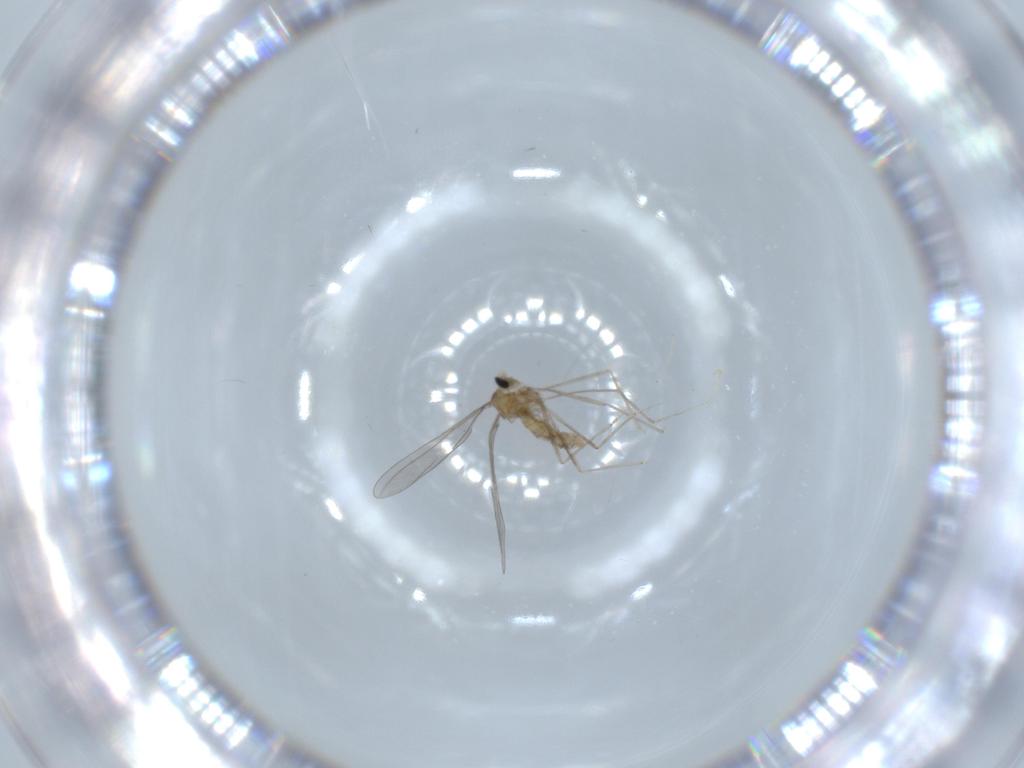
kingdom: Animalia
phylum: Arthropoda
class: Insecta
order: Diptera
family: Cecidomyiidae
